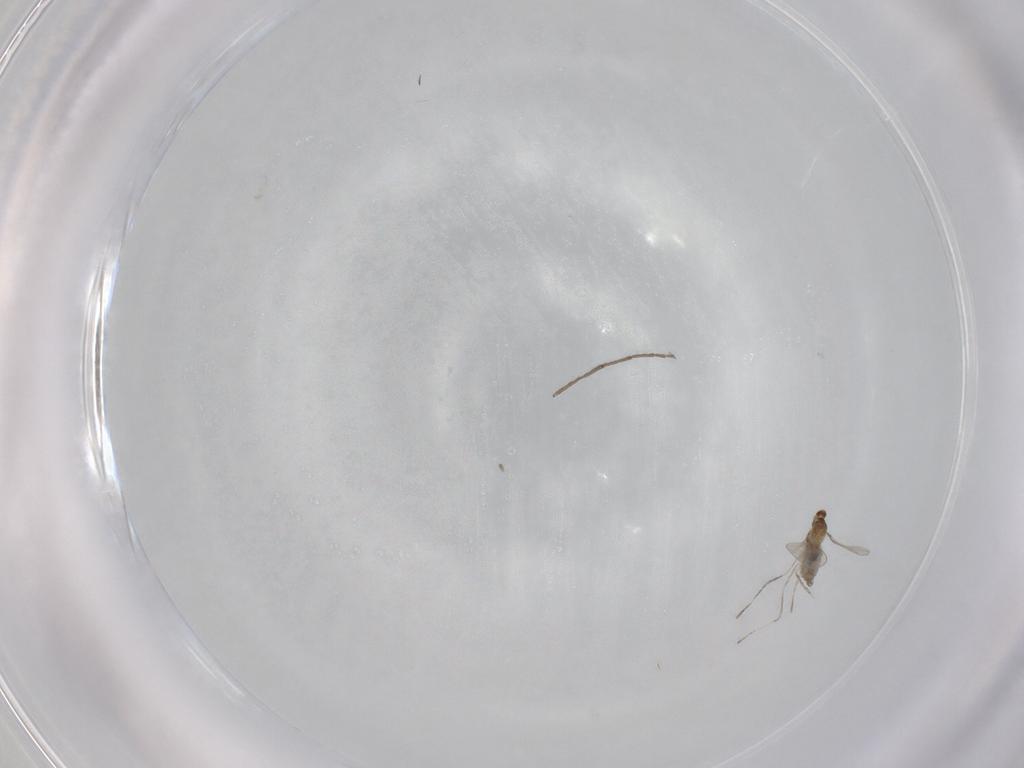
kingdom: Animalia
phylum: Arthropoda
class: Insecta
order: Diptera
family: Cecidomyiidae
